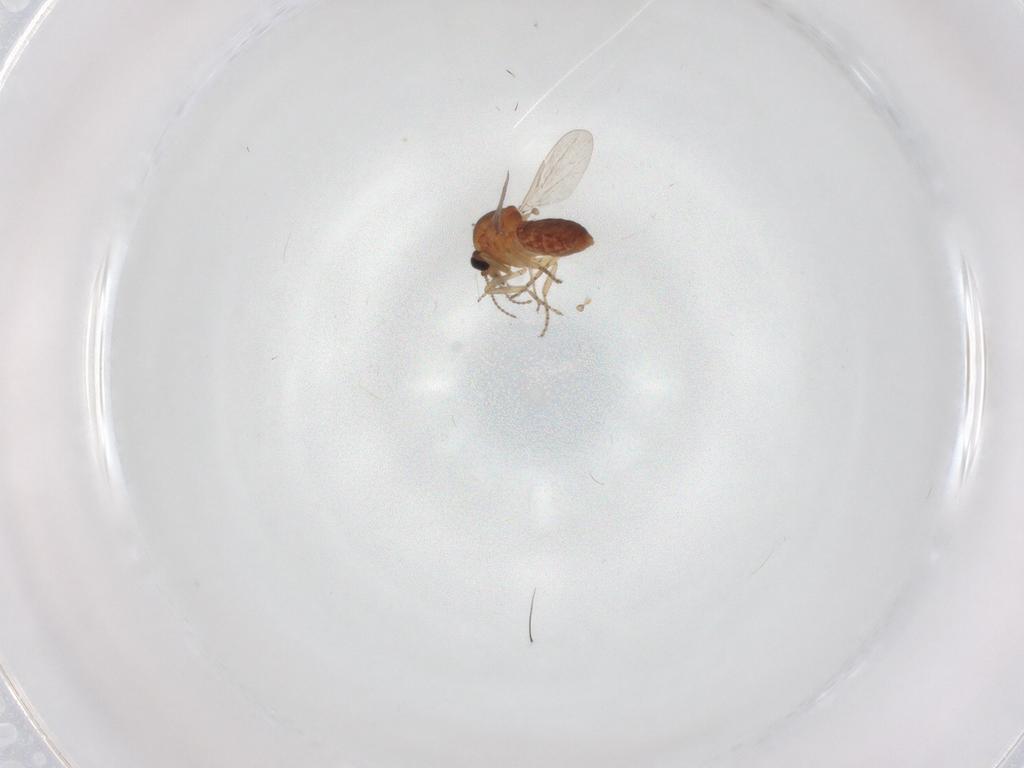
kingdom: Animalia
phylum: Arthropoda
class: Insecta
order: Diptera
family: Ceratopogonidae
